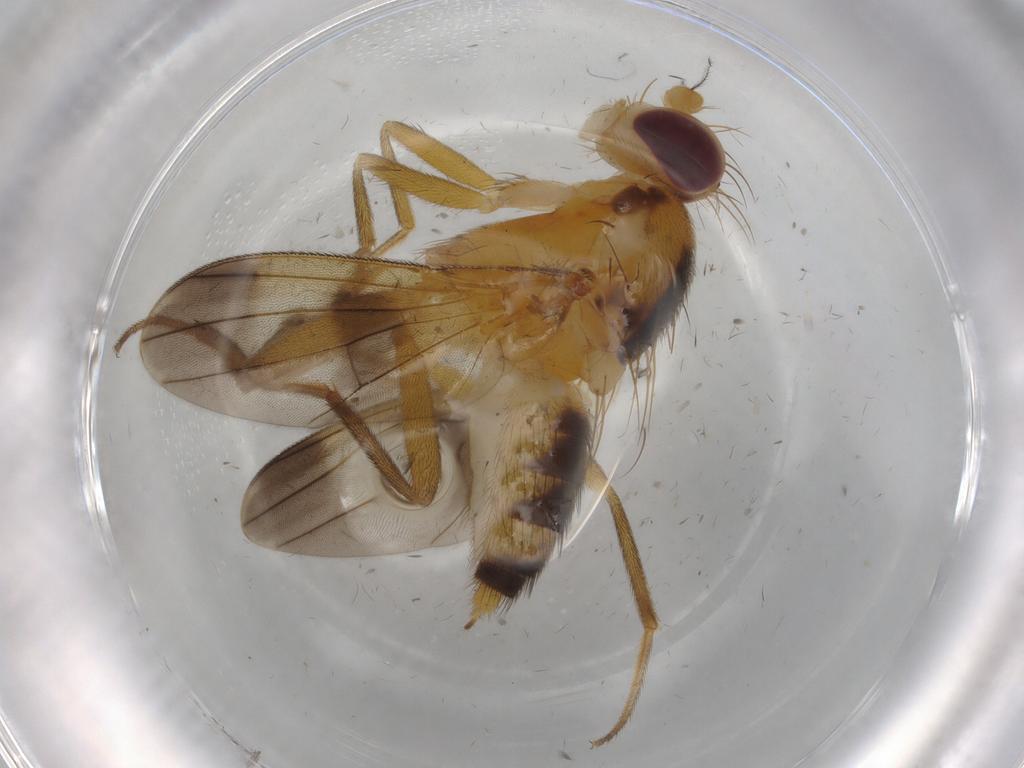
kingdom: Animalia
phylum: Arthropoda
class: Insecta
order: Diptera
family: Clusiidae
